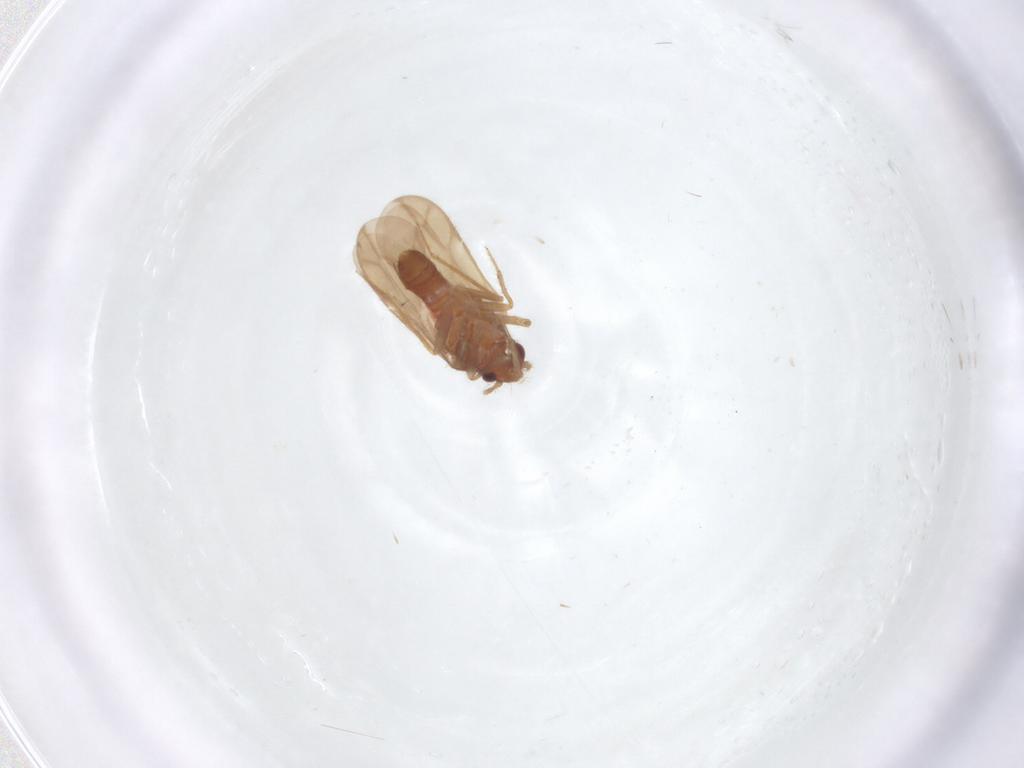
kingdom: Animalia
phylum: Arthropoda
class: Insecta
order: Hemiptera
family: Ceratocombidae
